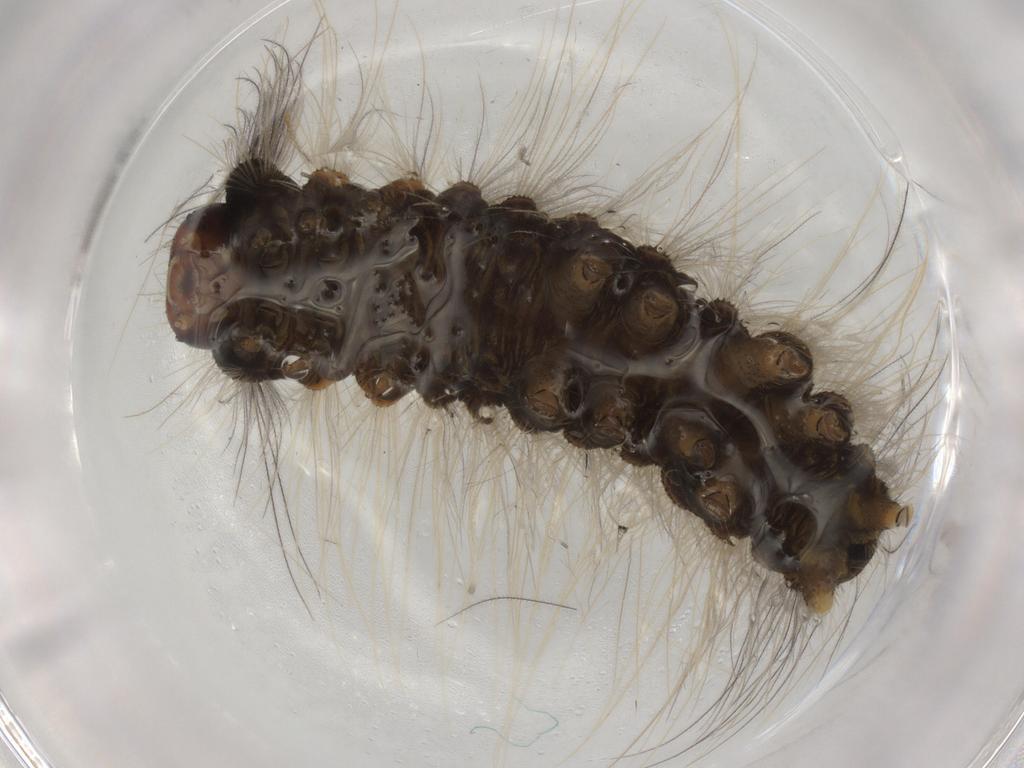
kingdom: Animalia
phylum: Arthropoda
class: Insecta
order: Lepidoptera
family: Erebidae
